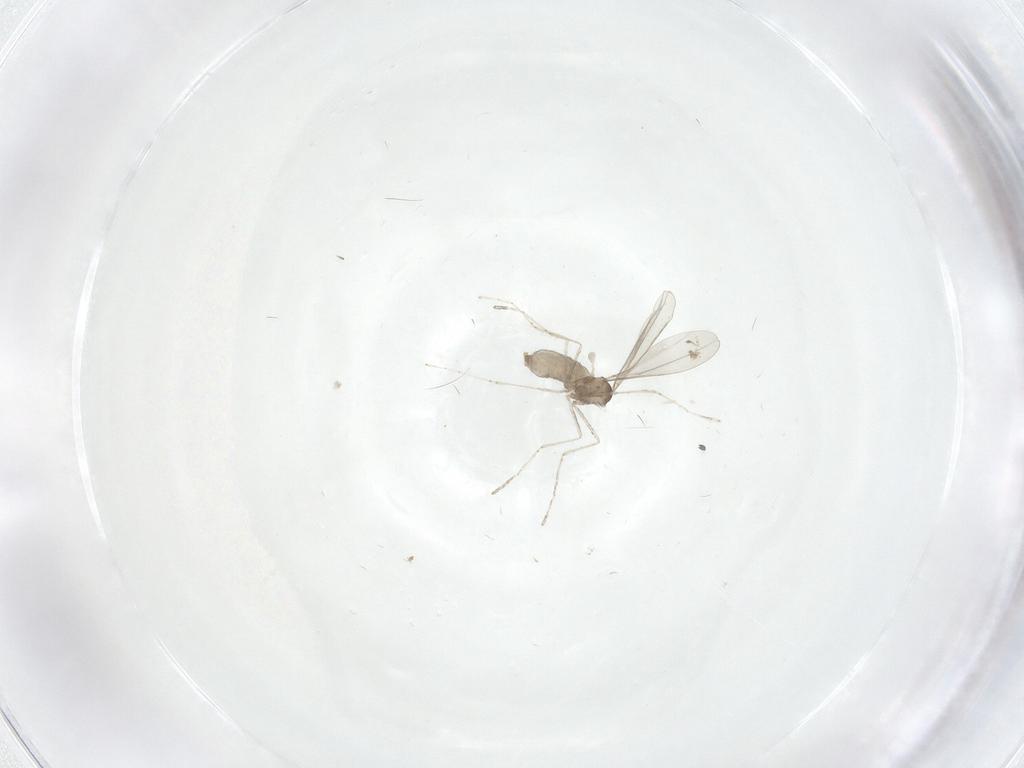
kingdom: Animalia
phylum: Arthropoda
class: Insecta
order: Diptera
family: Cecidomyiidae
